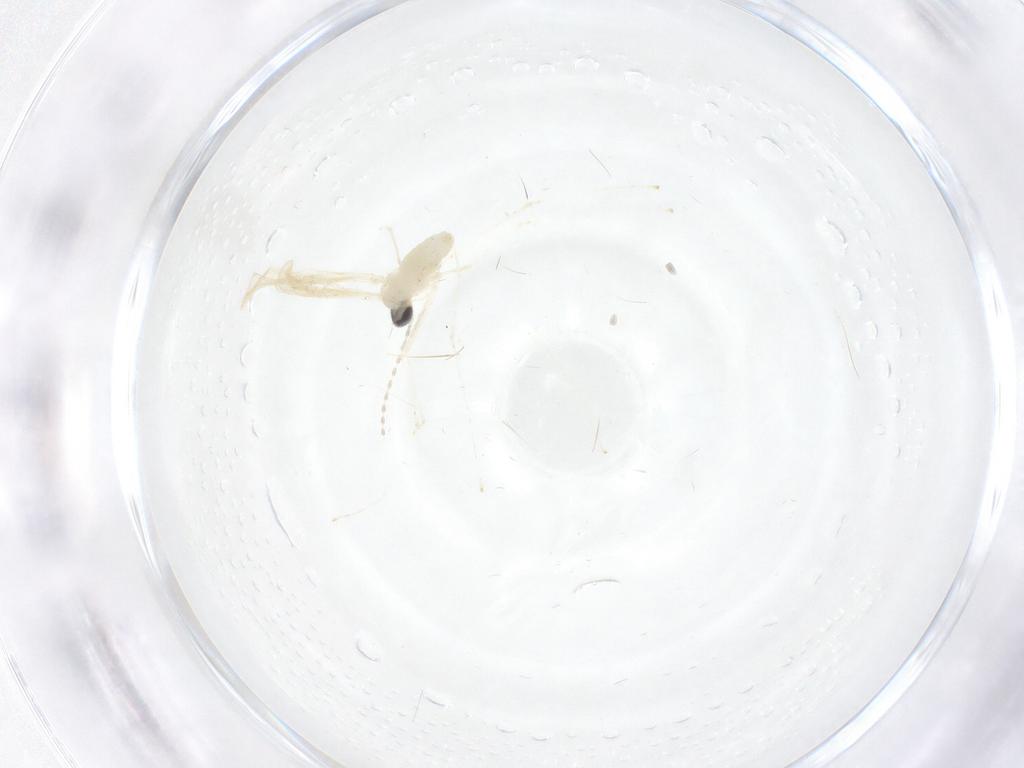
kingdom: Animalia
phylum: Arthropoda
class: Insecta
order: Diptera
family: Cecidomyiidae
